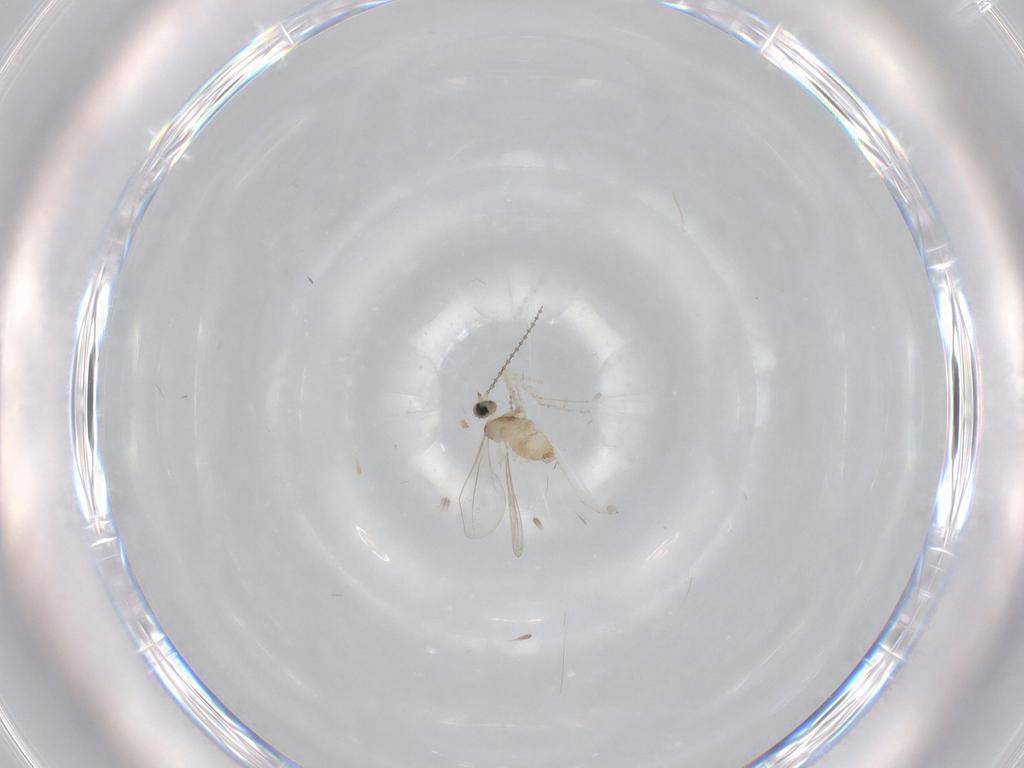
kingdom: Animalia
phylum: Arthropoda
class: Insecta
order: Diptera
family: Cecidomyiidae
